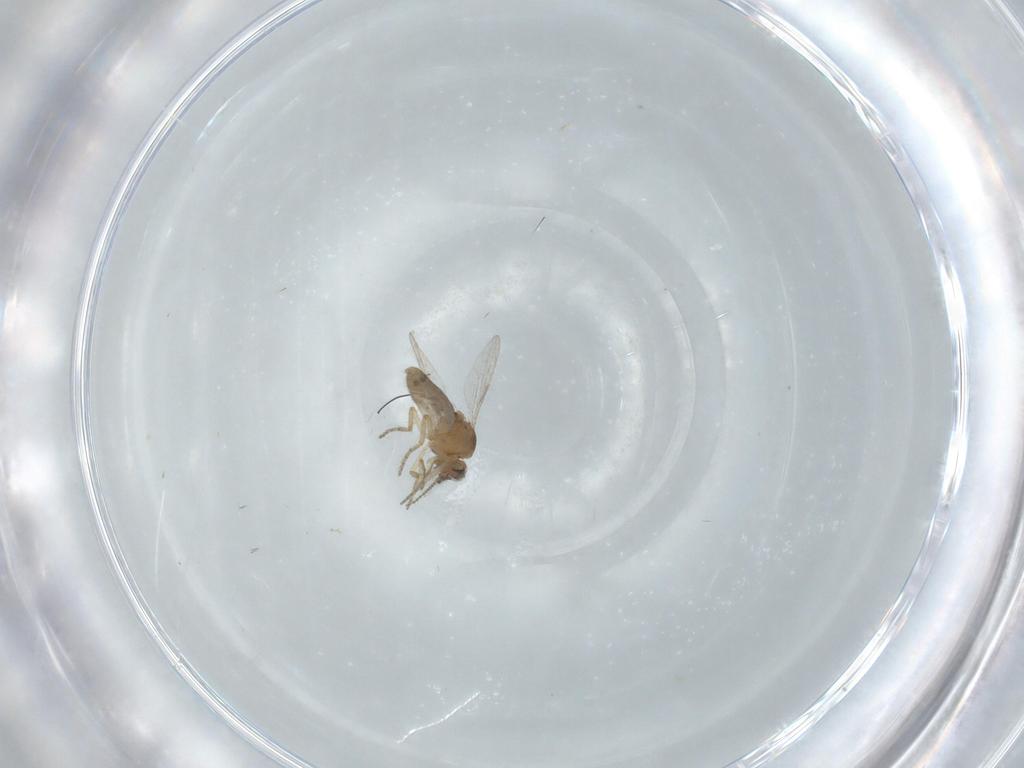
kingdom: Animalia
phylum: Arthropoda
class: Insecta
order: Diptera
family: Ceratopogonidae
